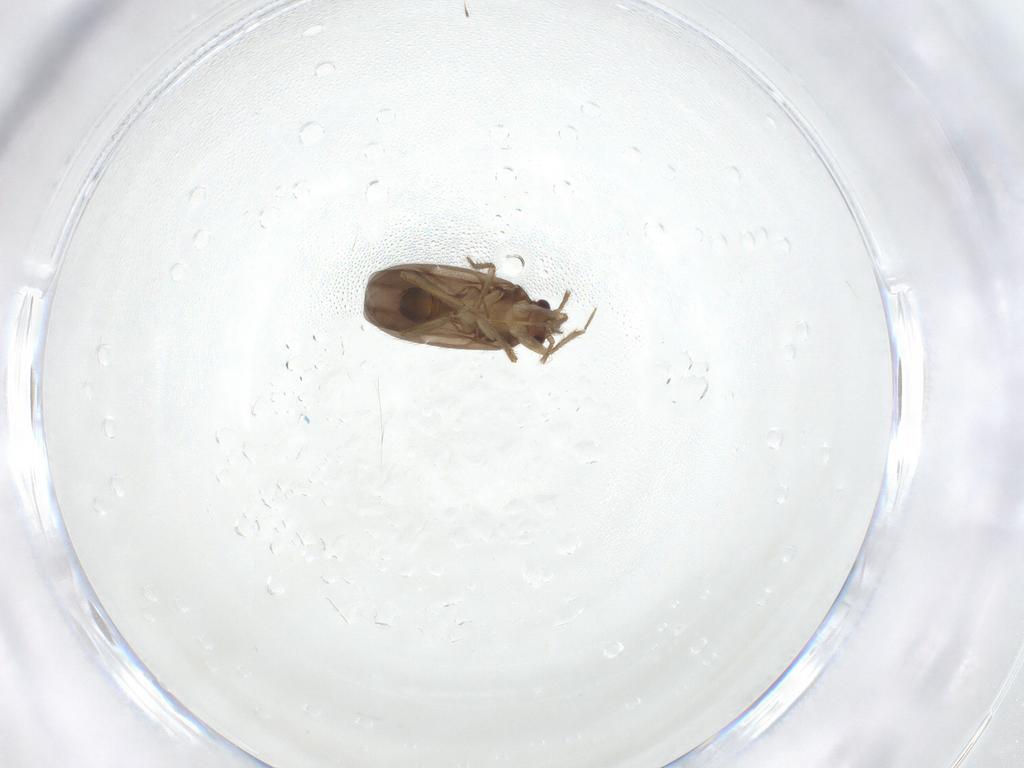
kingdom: Animalia
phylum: Arthropoda
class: Insecta
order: Hemiptera
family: Ceratocombidae
